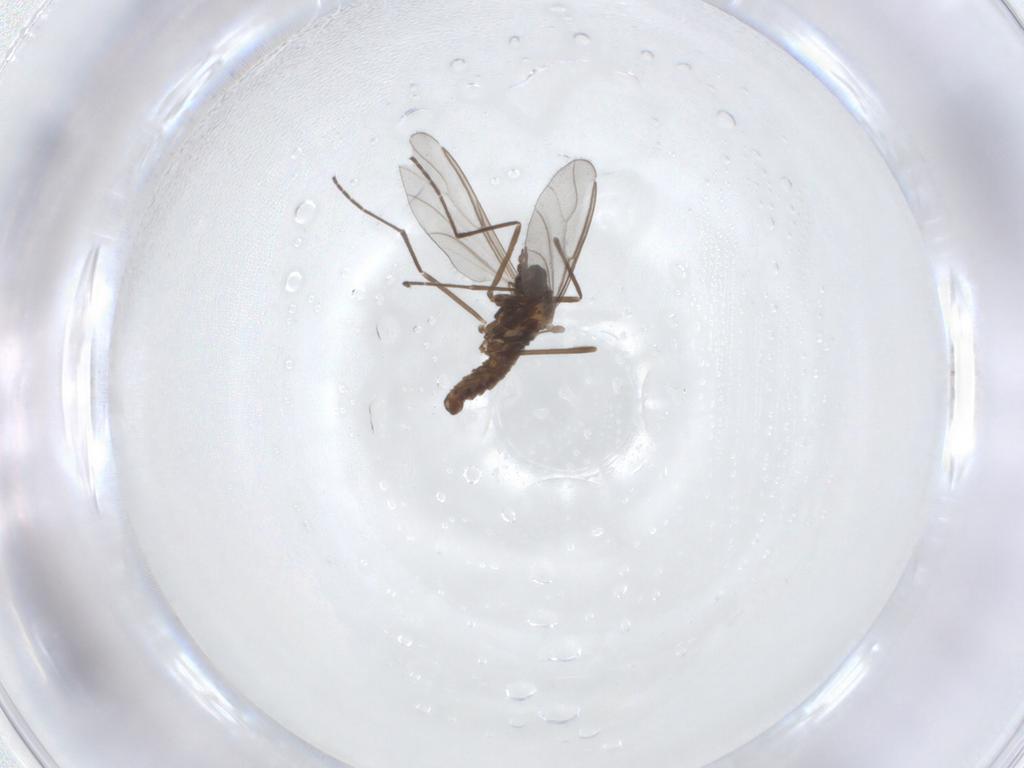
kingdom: Animalia
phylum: Arthropoda
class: Insecta
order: Diptera
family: Cecidomyiidae
